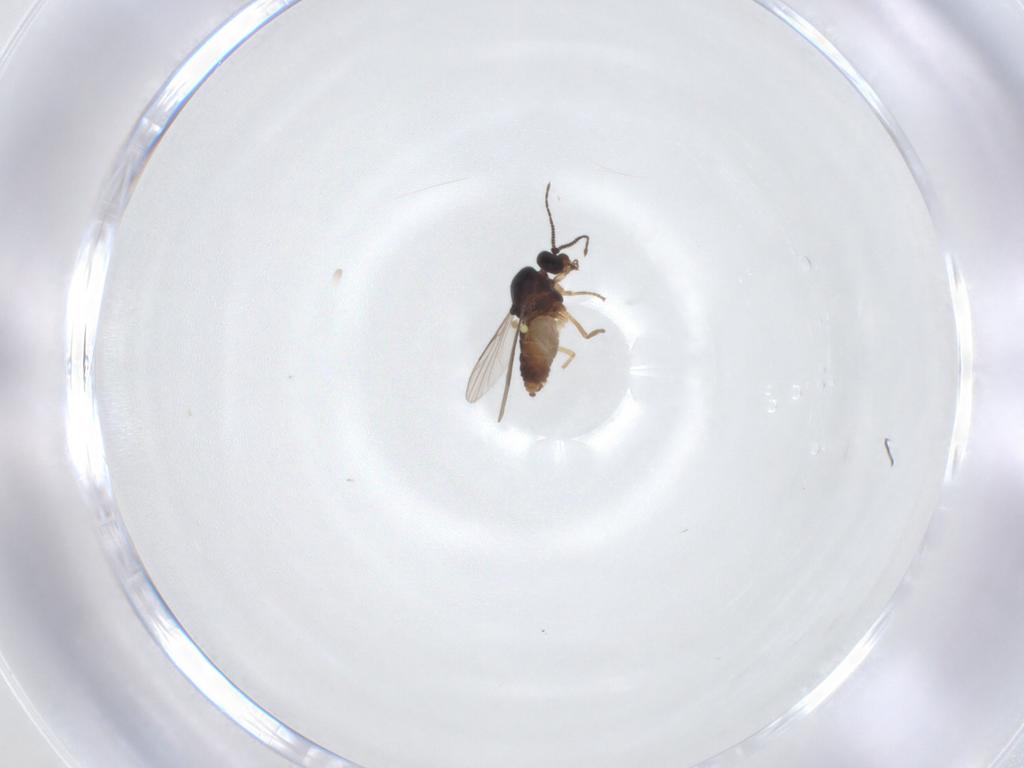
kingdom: Animalia
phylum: Arthropoda
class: Insecta
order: Diptera
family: Ceratopogonidae
